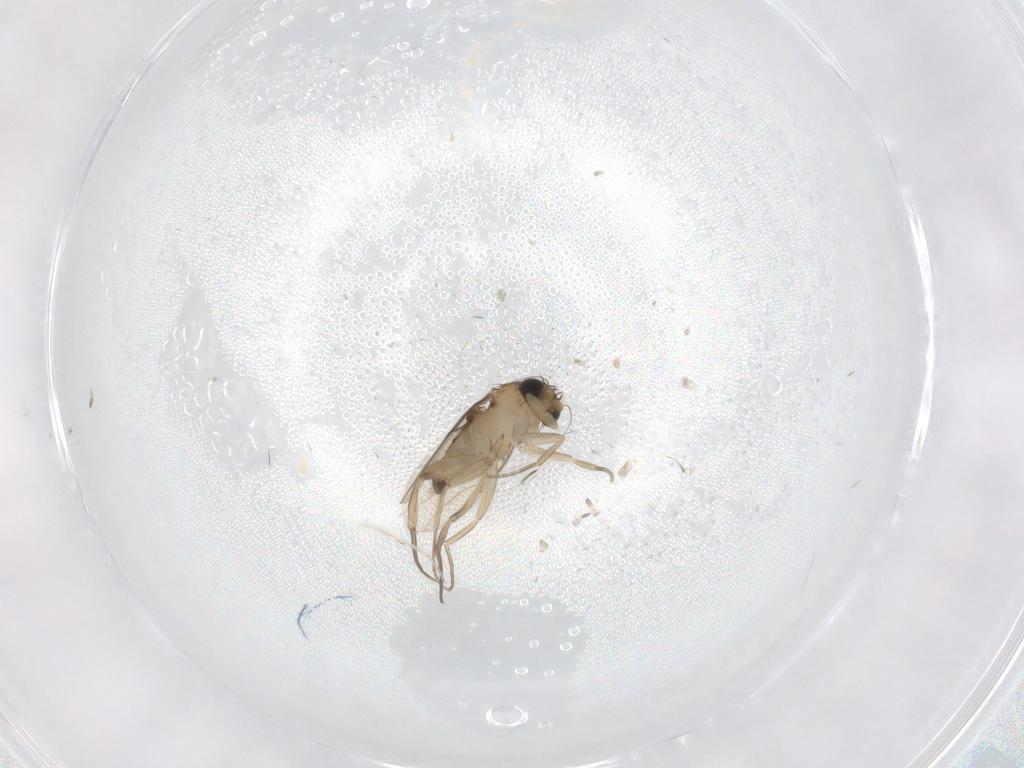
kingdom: Animalia
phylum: Arthropoda
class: Insecta
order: Diptera
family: Phoridae
